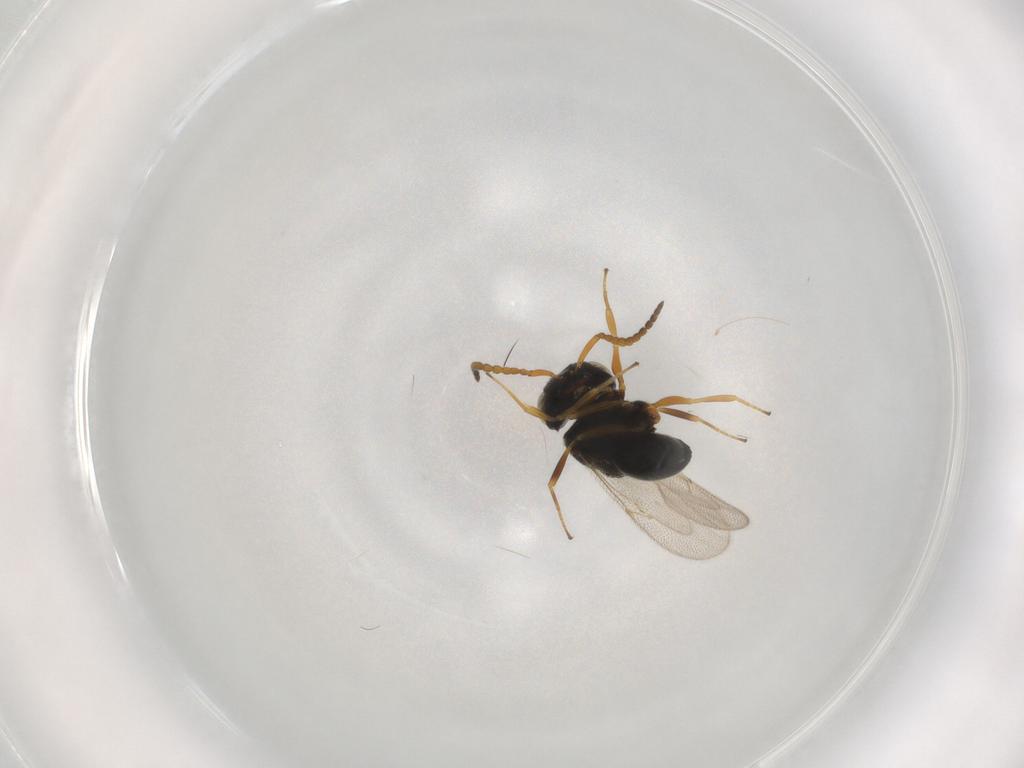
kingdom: Animalia
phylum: Arthropoda
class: Insecta
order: Hymenoptera
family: Scelionidae
